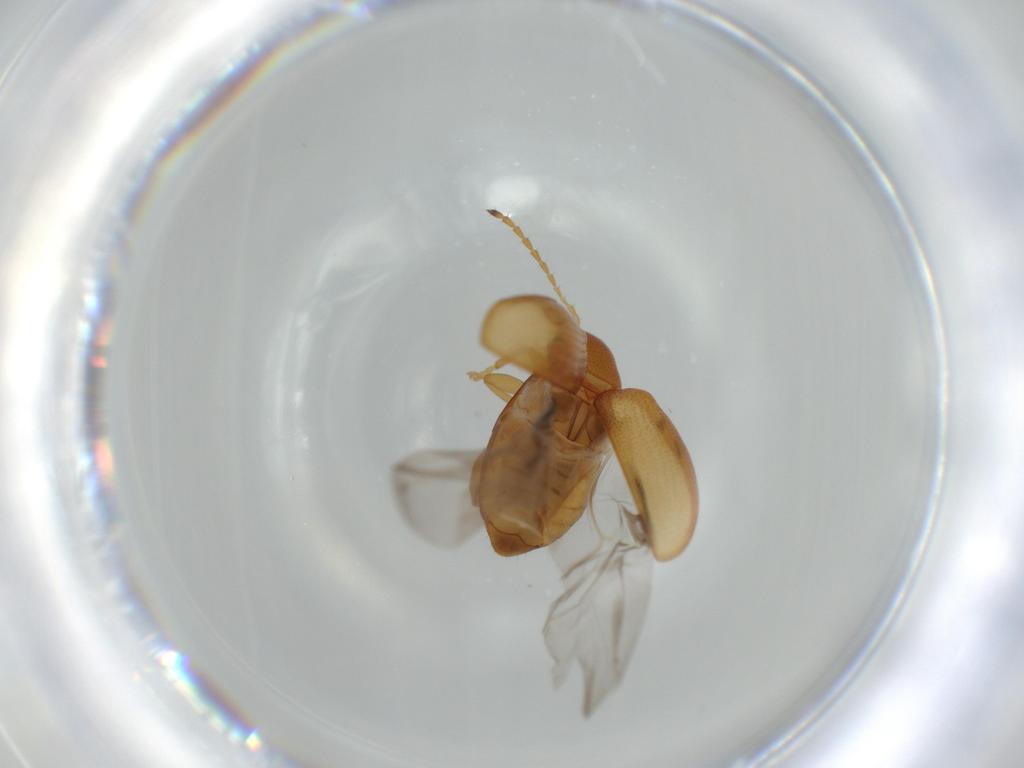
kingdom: Animalia
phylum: Arthropoda
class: Insecta
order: Coleoptera
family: Chrysomelidae
